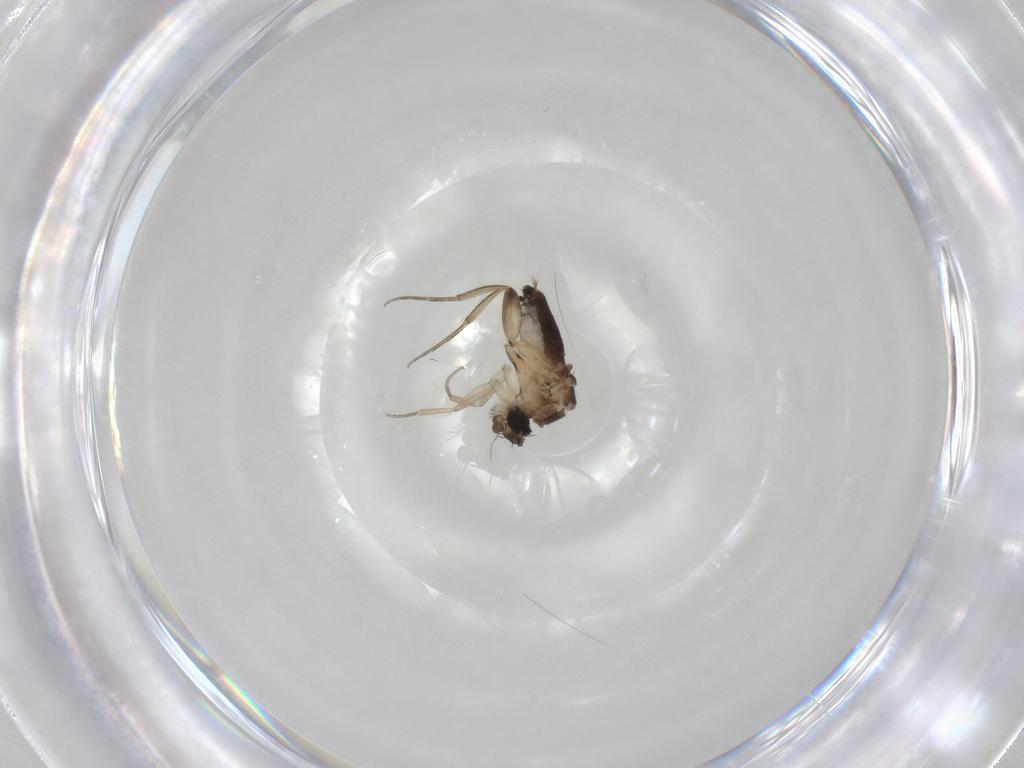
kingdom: Animalia
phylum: Arthropoda
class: Insecta
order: Diptera
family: Phoridae
